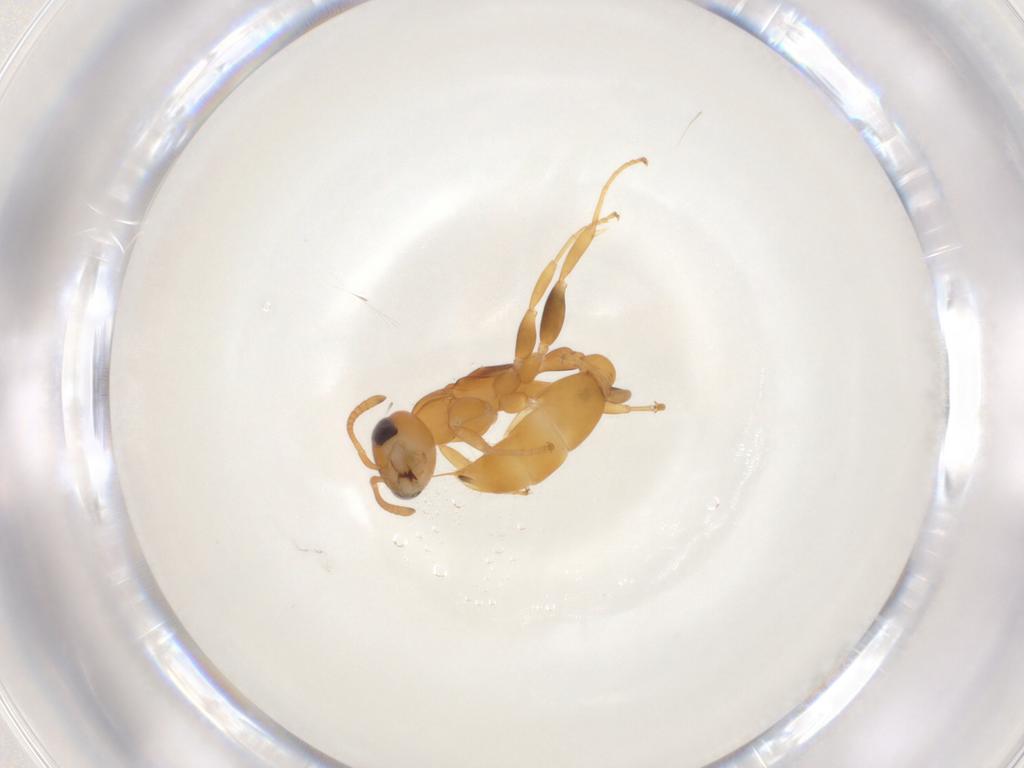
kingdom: Animalia
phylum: Arthropoda
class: Insecta
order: Hymenoptera
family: Formicidae
